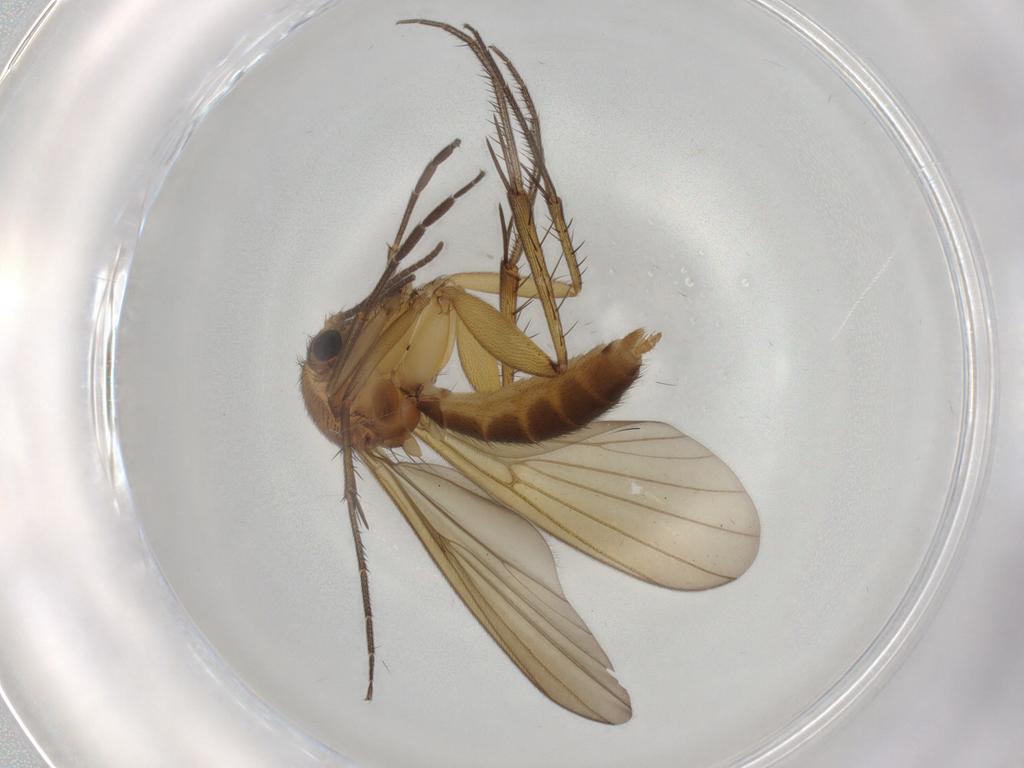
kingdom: Animalia
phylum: Arthropoda
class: Insecta
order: Diptera
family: Mycetophilidae
